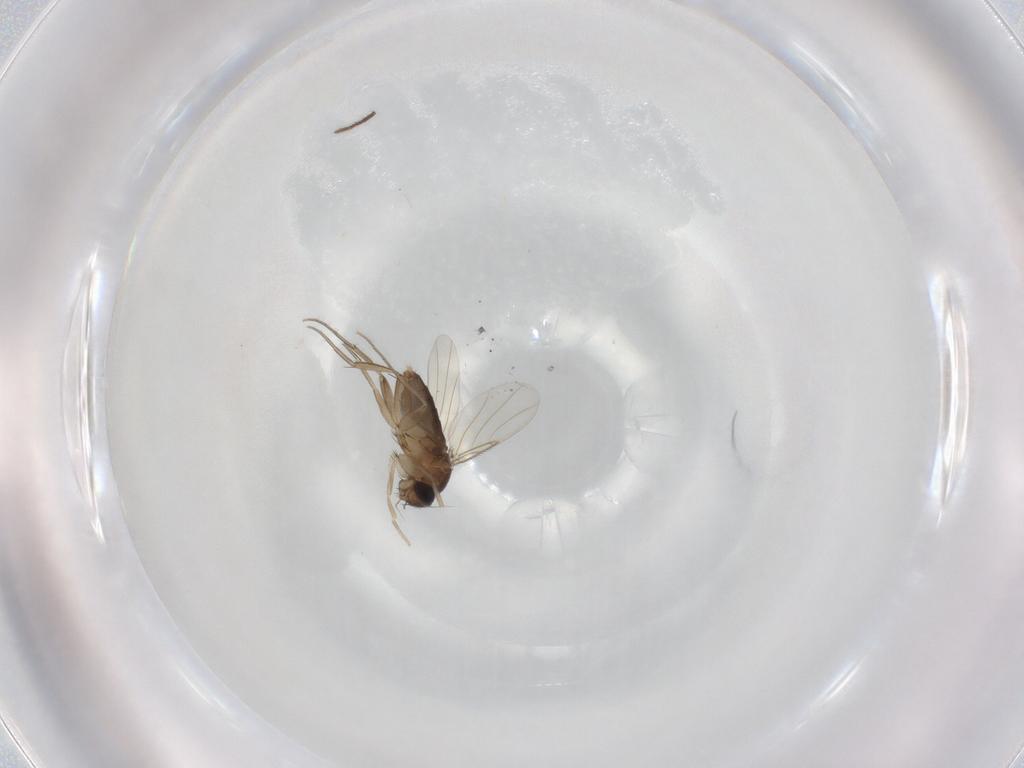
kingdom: Animalia
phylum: Arthropoda
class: Insecta
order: Diptera
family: Phoridae
